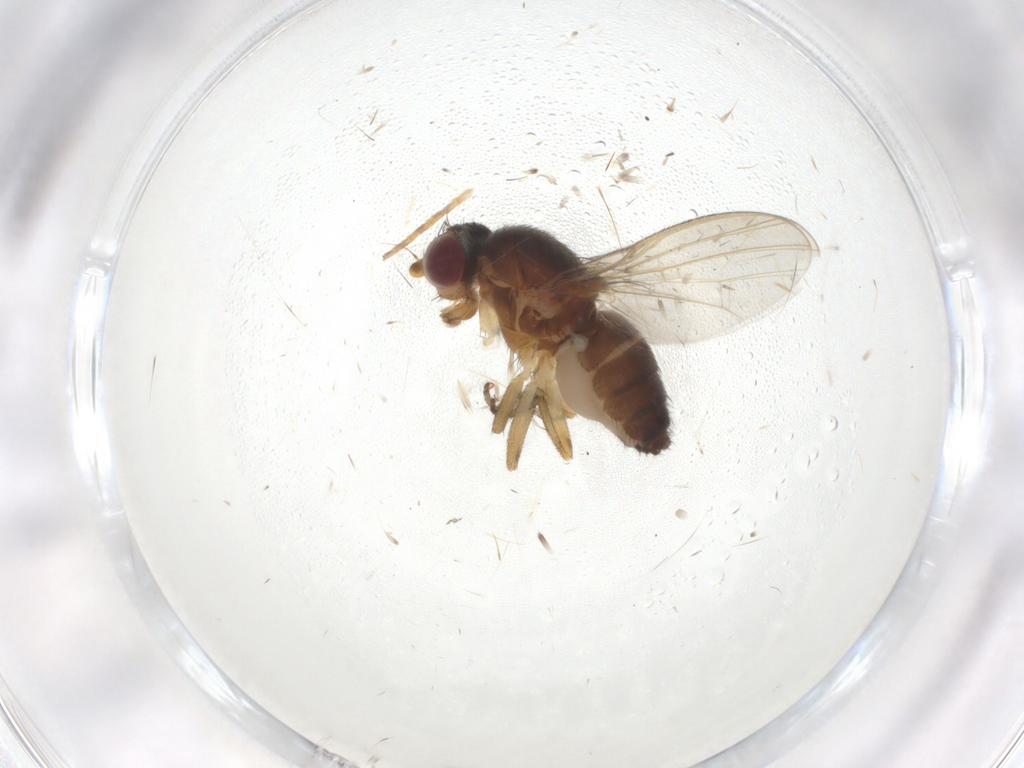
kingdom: Animalia
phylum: Arthropoda
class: Insecta
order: Diptera
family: Heleomyzidae
